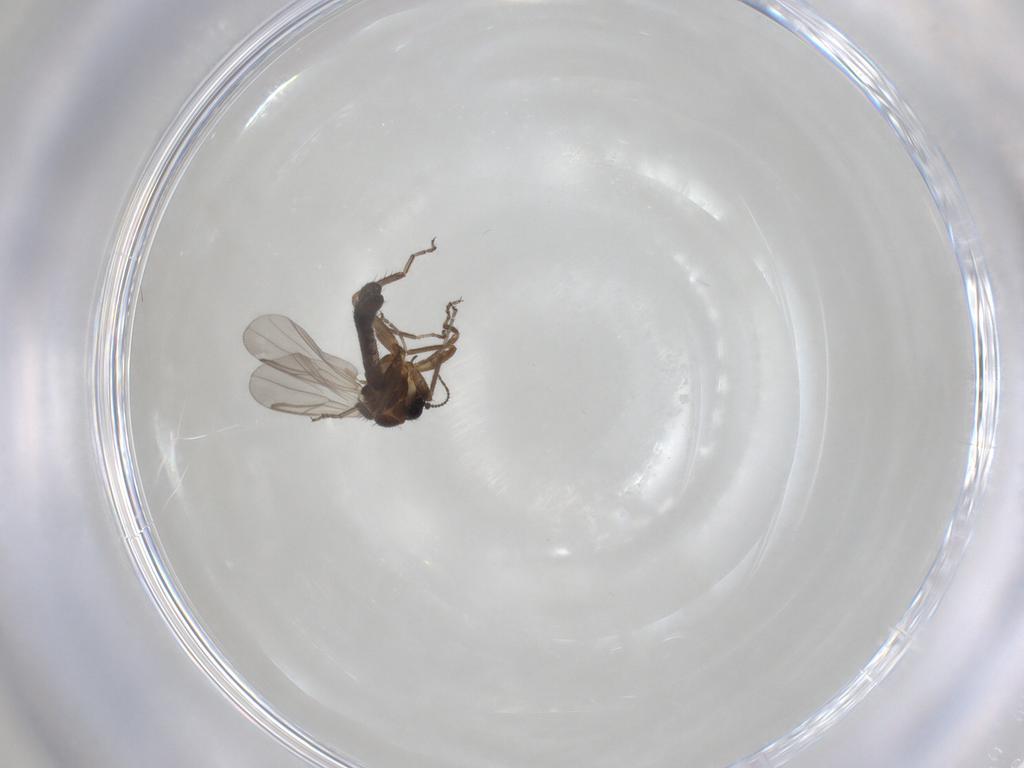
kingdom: Animalia
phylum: Arthropoda
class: Insecta
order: Diptera
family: Ceratopogonidae
